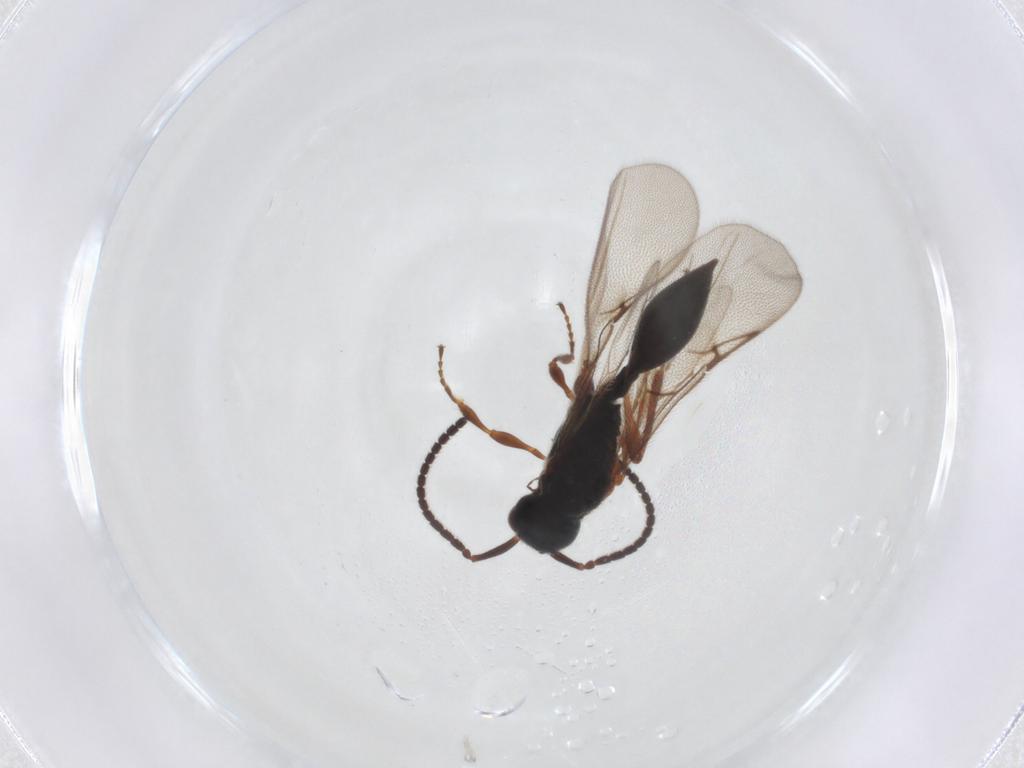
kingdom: Animalia
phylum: Arthropoda
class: Insecta
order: Hymenoptera
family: Diapriidae
